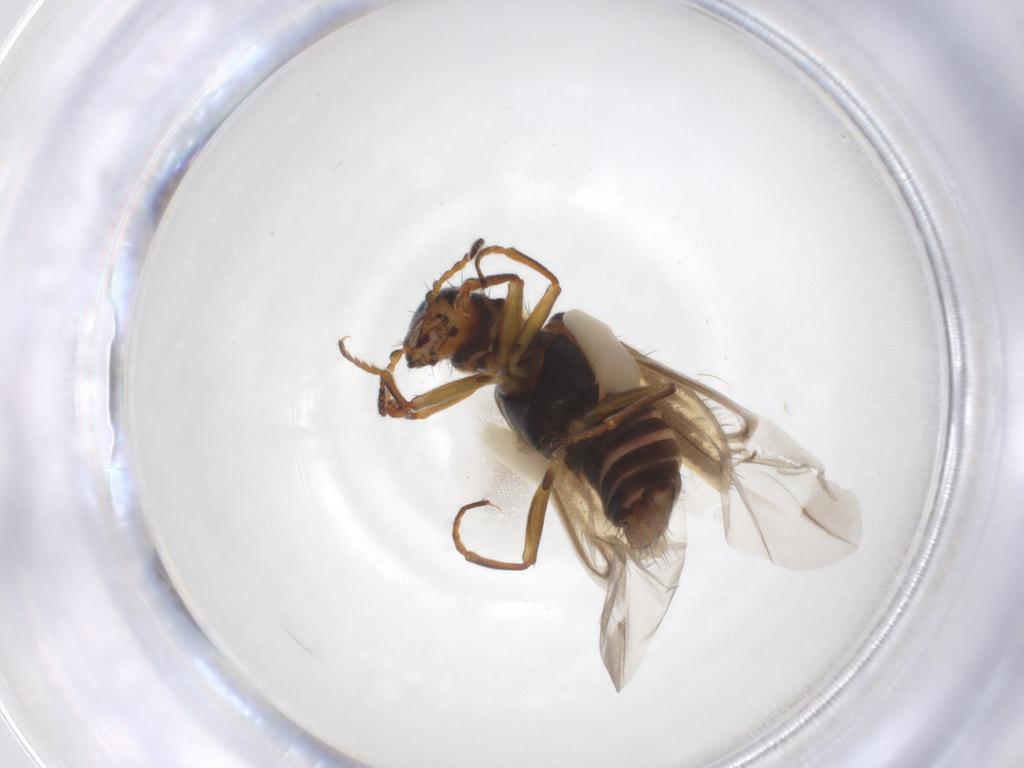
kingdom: Animalia
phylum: Arthropoda
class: Insecta
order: Coleoptera
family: Melyridae
